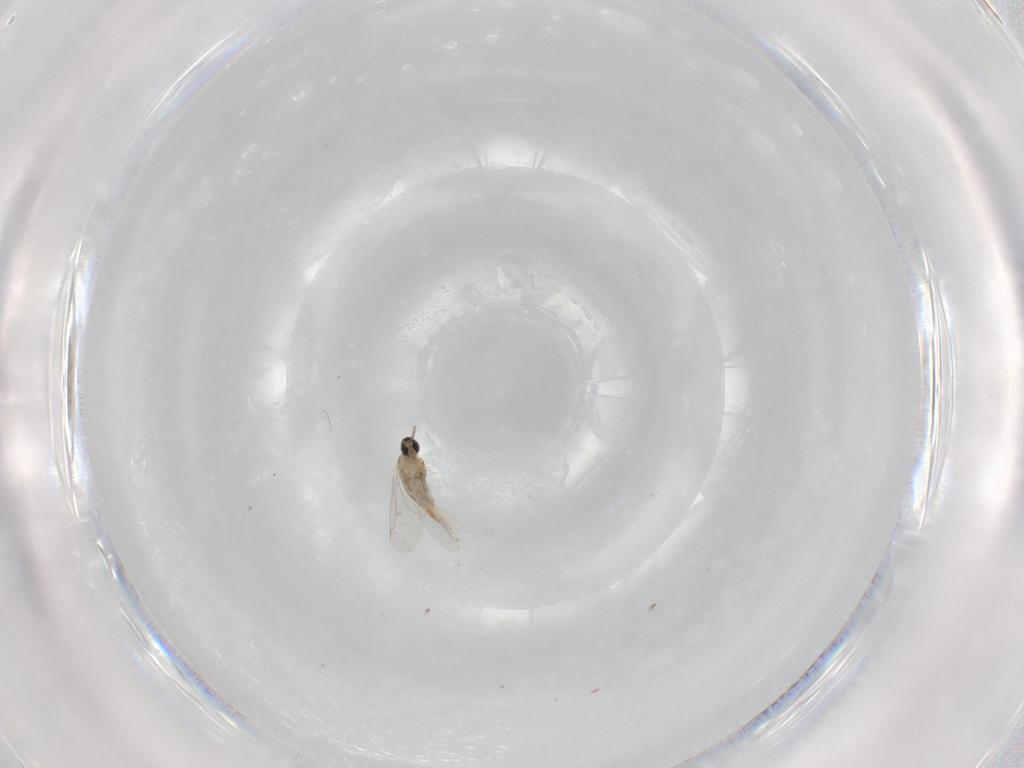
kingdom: Animalia
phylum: Arthropoda
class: Insecta
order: Diptera
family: Cecidomyiidae
